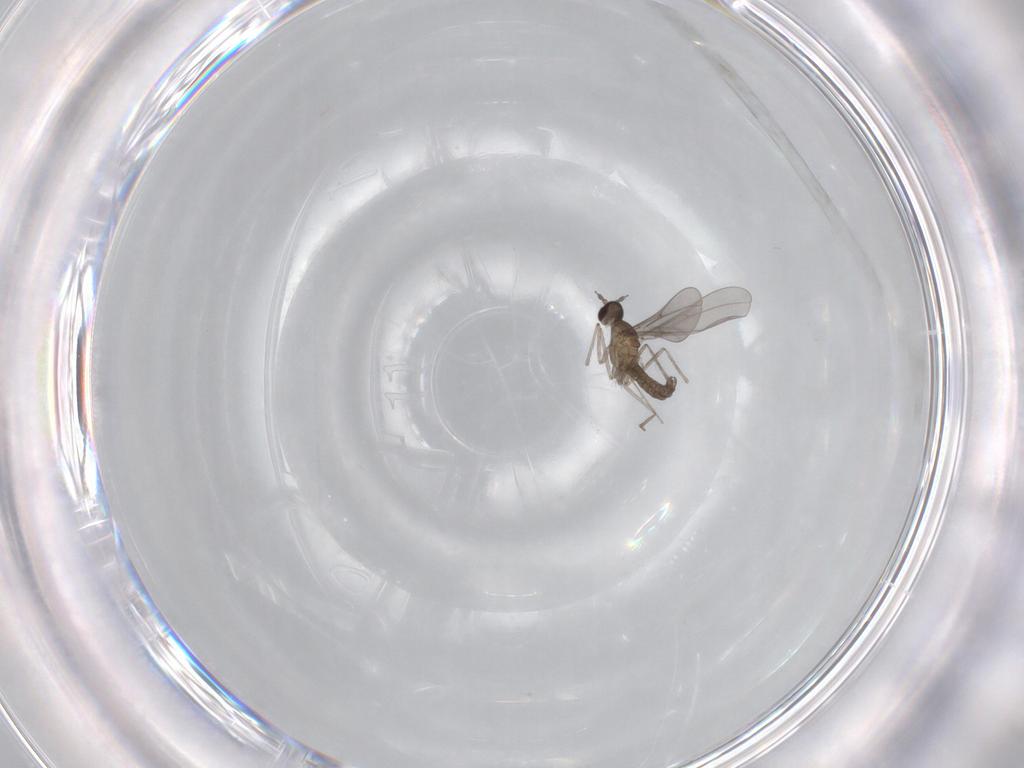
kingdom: Animalia
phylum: Arthropoda
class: Insecta
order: Diptera
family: Cecidomyiidae
